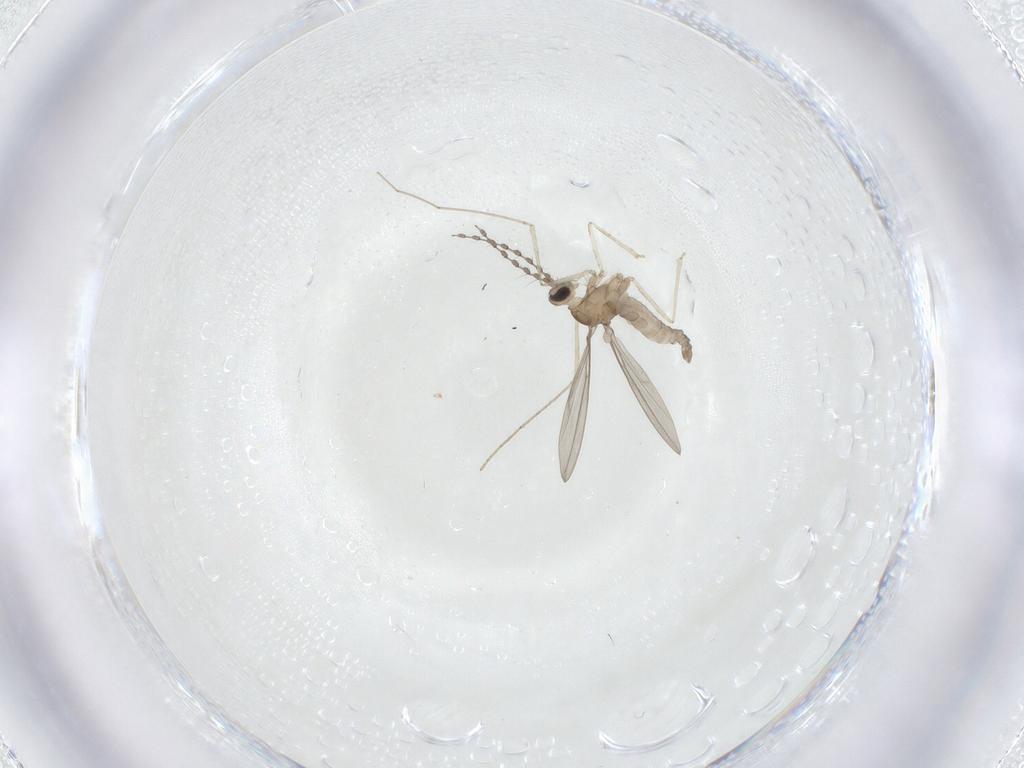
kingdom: Animalia
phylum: Arthropoda
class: Insecta
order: Diptera
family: Cecidomyiidae
